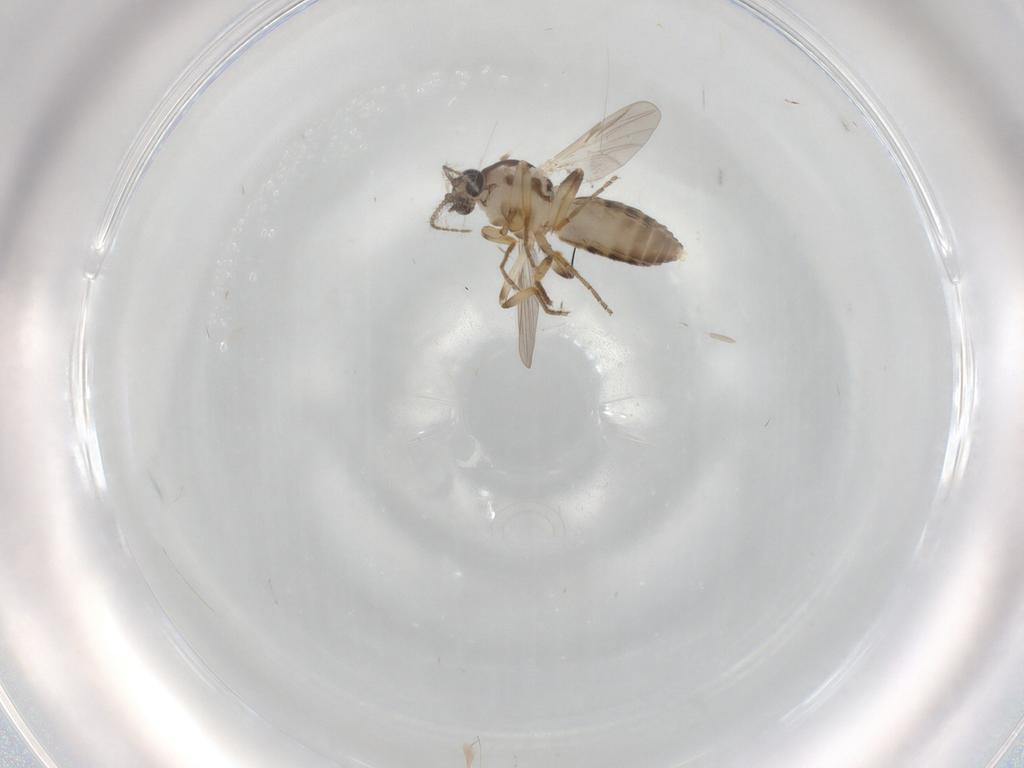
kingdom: Animalia
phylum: Arthropoda
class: Insecta
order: Diptera
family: Ceratopogonidae
